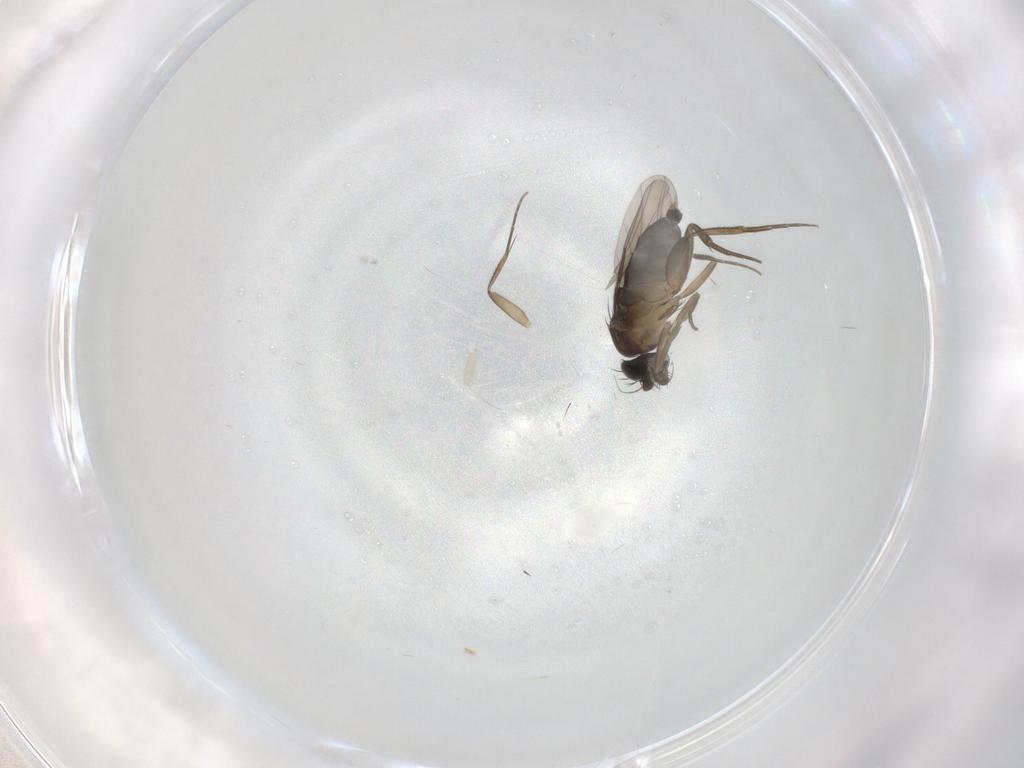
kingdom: Animalia
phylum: Arthropoda
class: Insecta
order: Diptera
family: Phoridae
